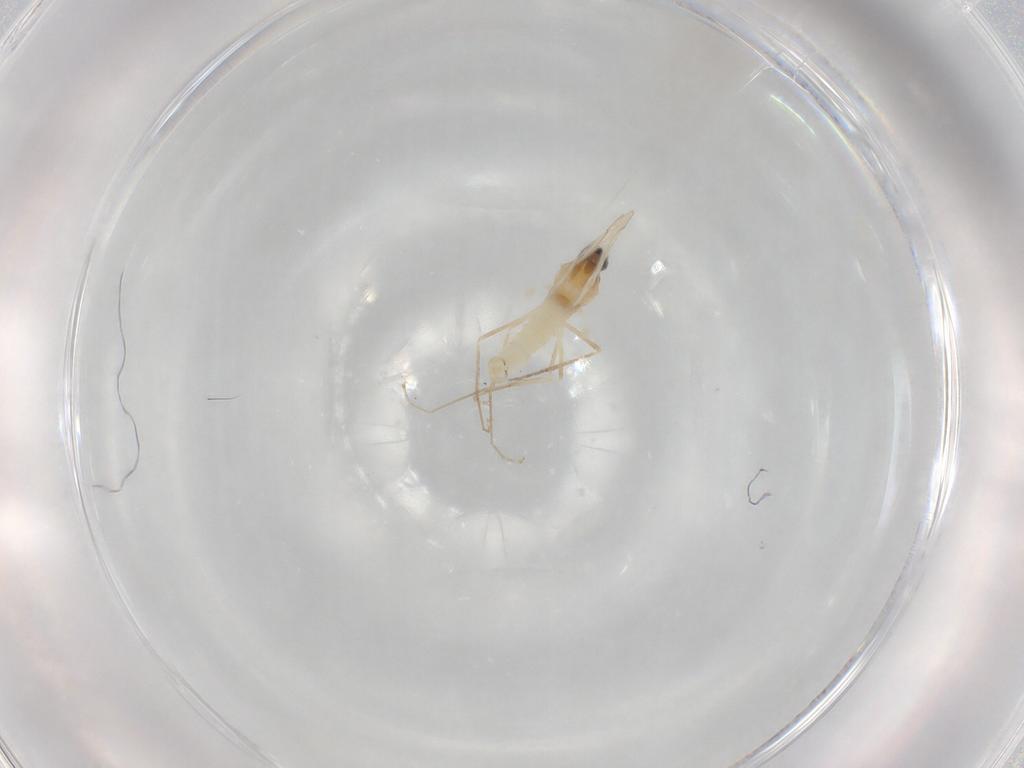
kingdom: Animalia
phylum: Arthropoda
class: Insecta
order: Diptera
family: Cecidomyiidae
